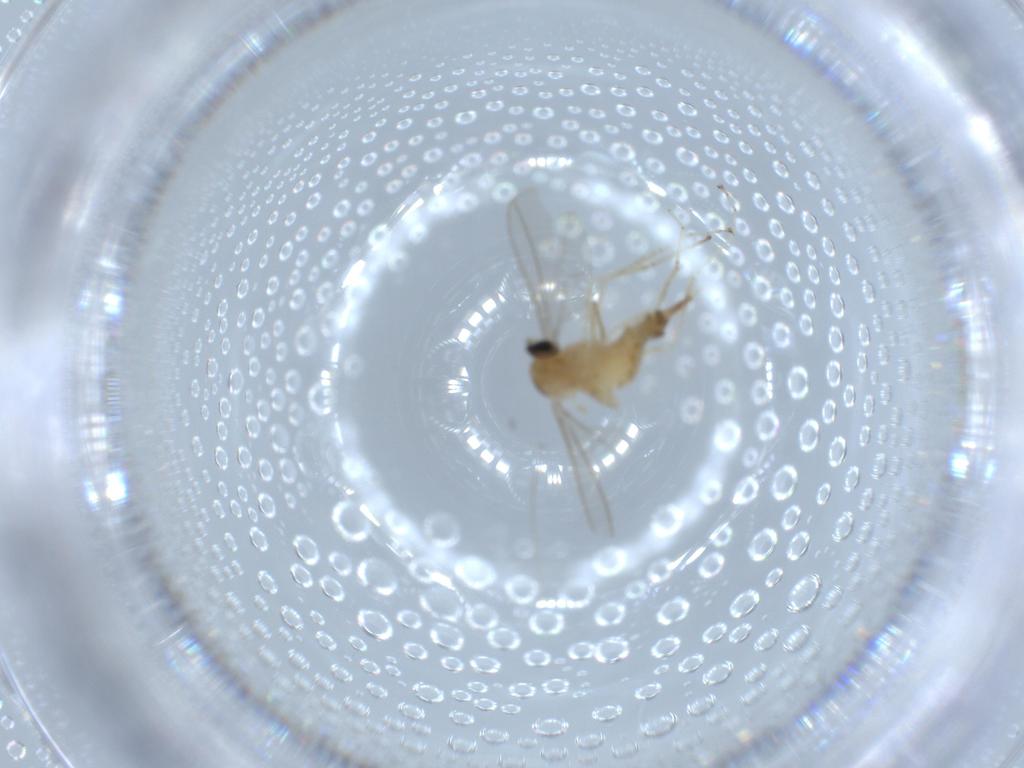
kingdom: Animalia
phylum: Arthropoda
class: Insecta
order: Diptera
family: Cecidomyiidae
